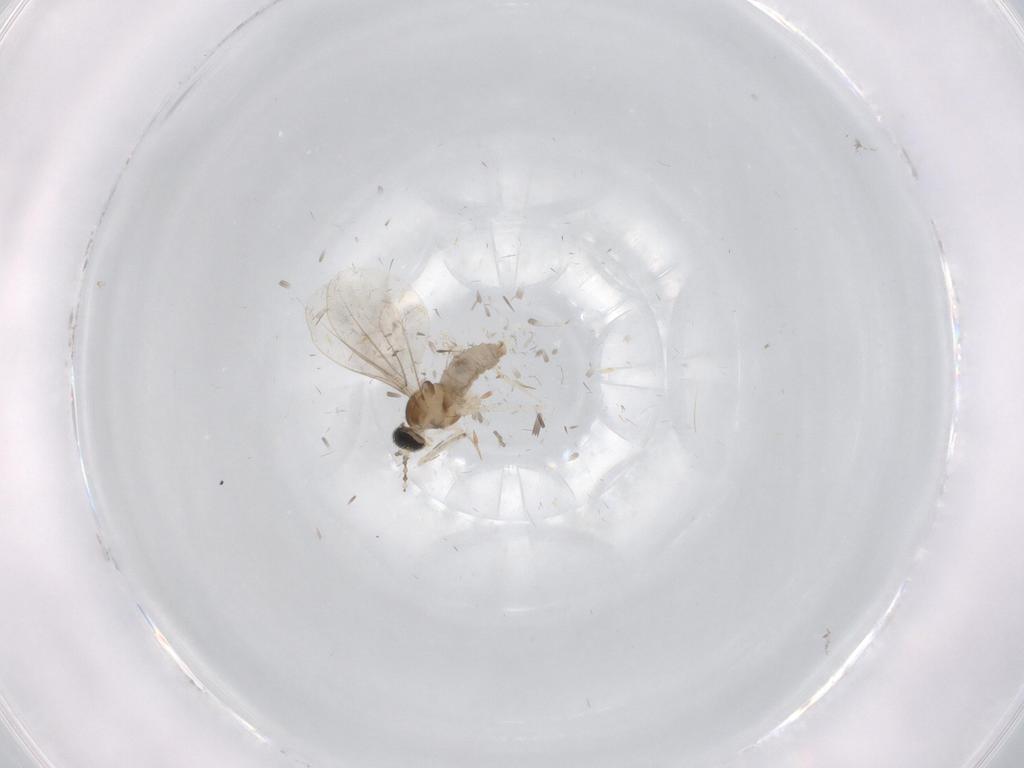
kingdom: Animalia
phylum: Arthropoda
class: Insecta
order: Diptera
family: Cecidomyiidae
